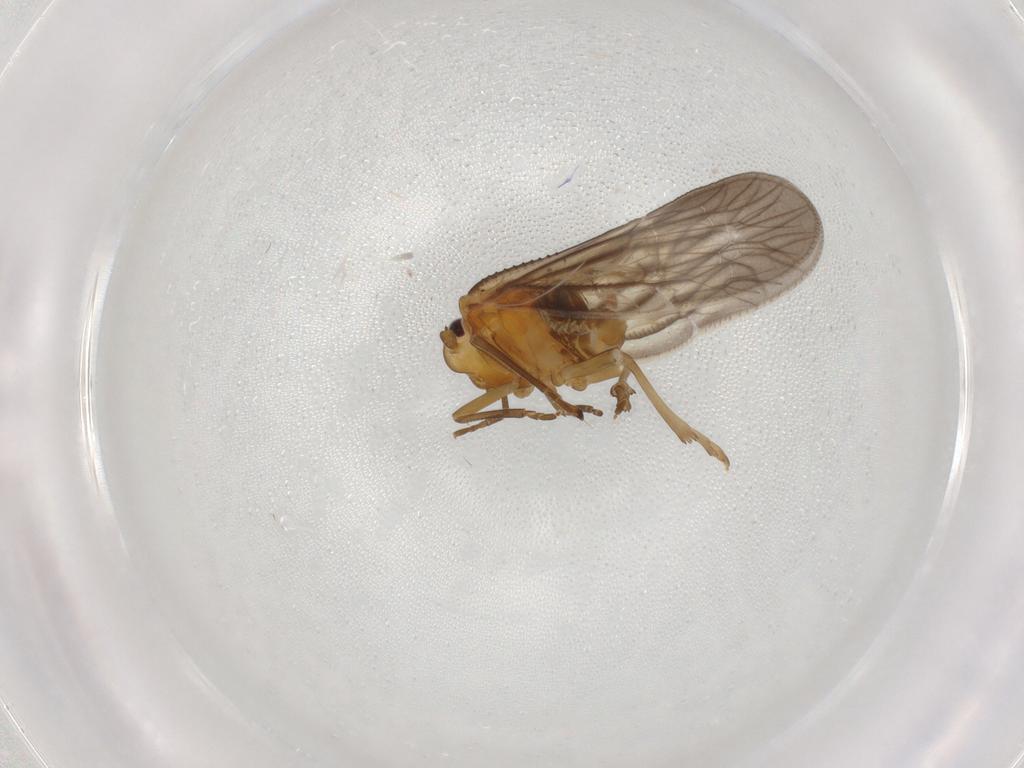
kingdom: Animalia
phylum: Arthropoda
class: Insecta
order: Hemiptera
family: Meenoplidae
